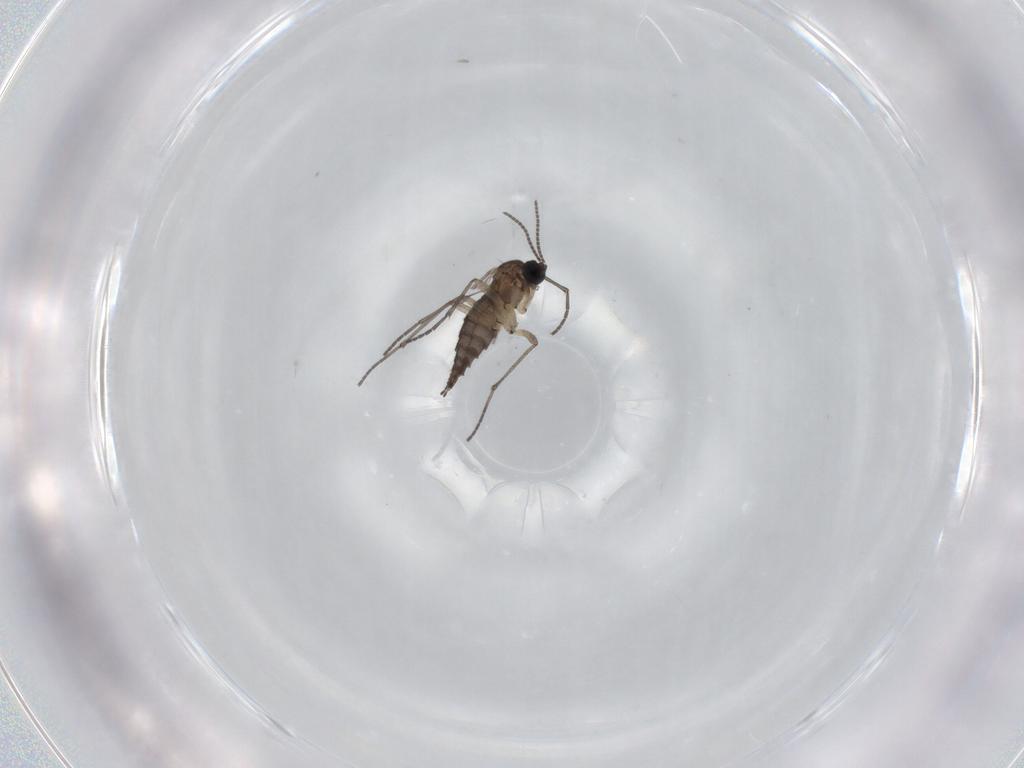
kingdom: Animalia
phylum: Arthropoda
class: Insecta
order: Diptera
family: Sciaridae
